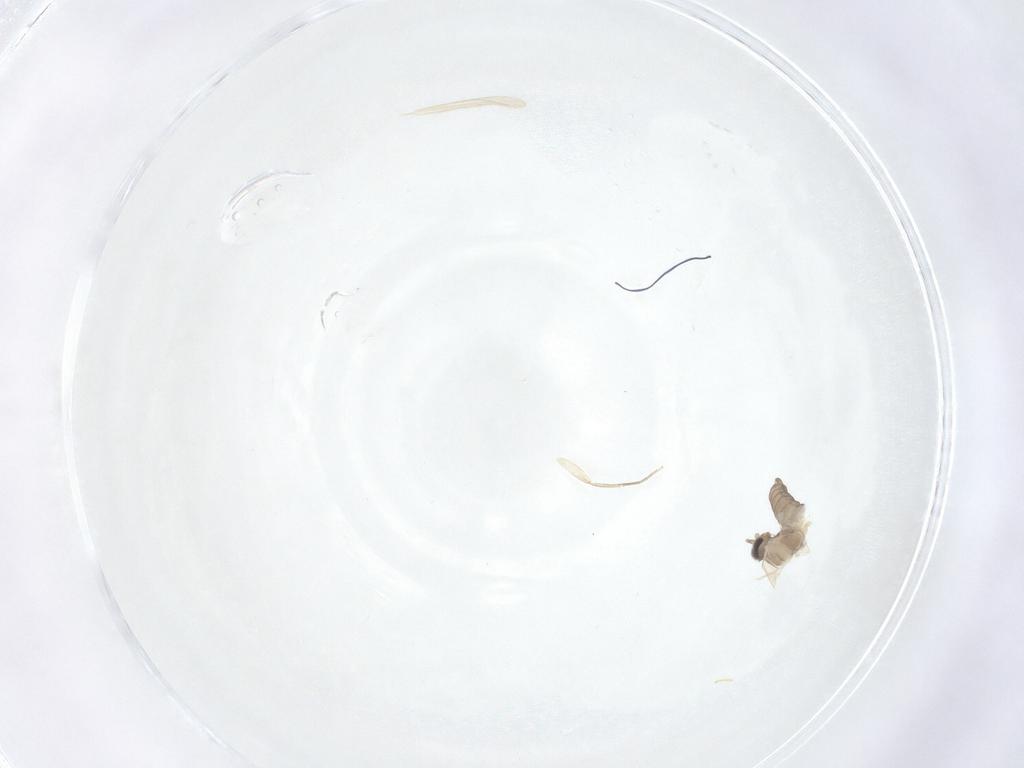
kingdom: Animalia
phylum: Arthropoda
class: Insecta
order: Diptera
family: Cecidomyiidae
